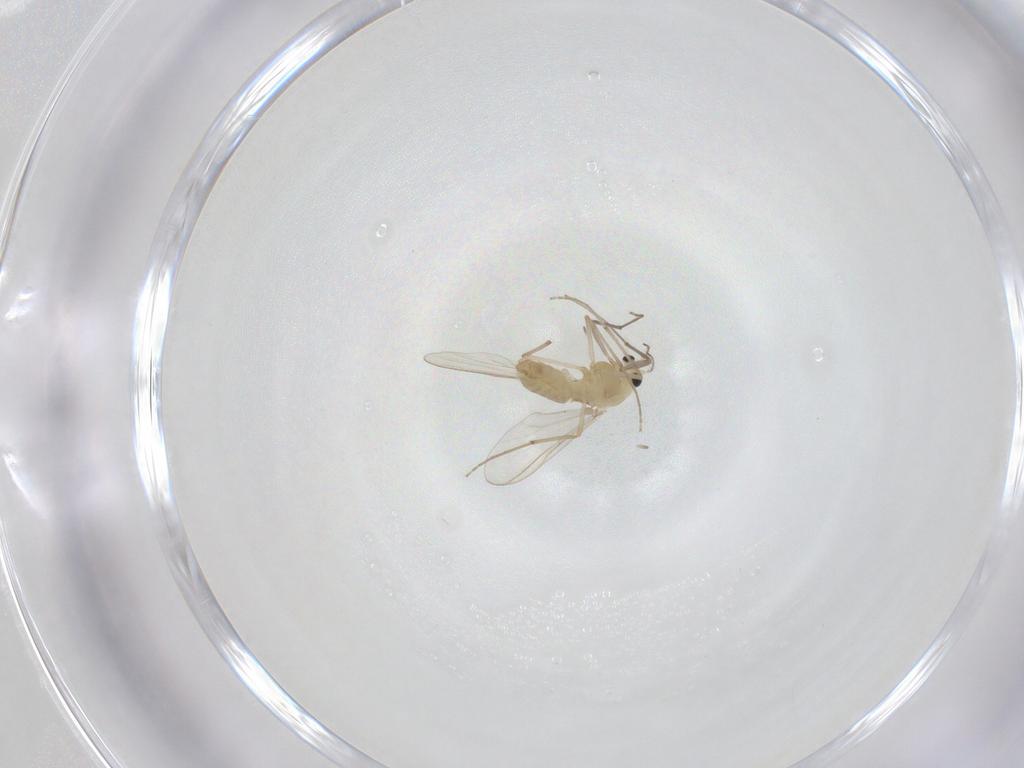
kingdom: Animalia
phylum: Arthropoda
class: Insecta
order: Diptera
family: Chironomidae
